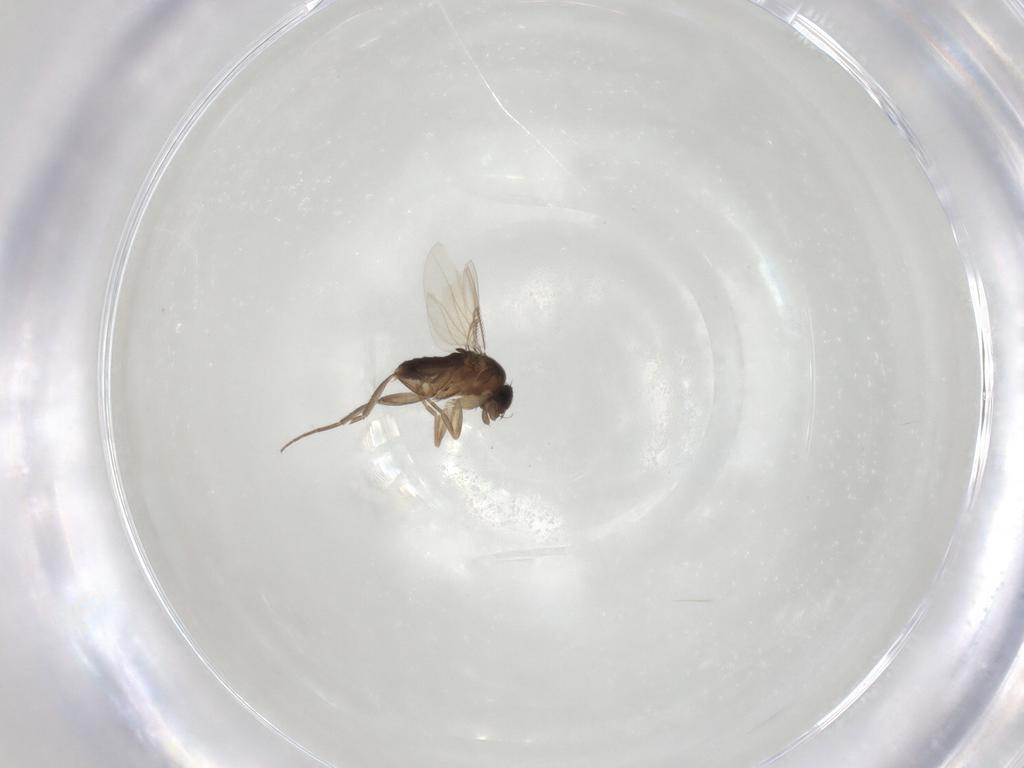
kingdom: Animalia
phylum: Arthropoda
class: Insecta
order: Diptera
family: Phoridae
